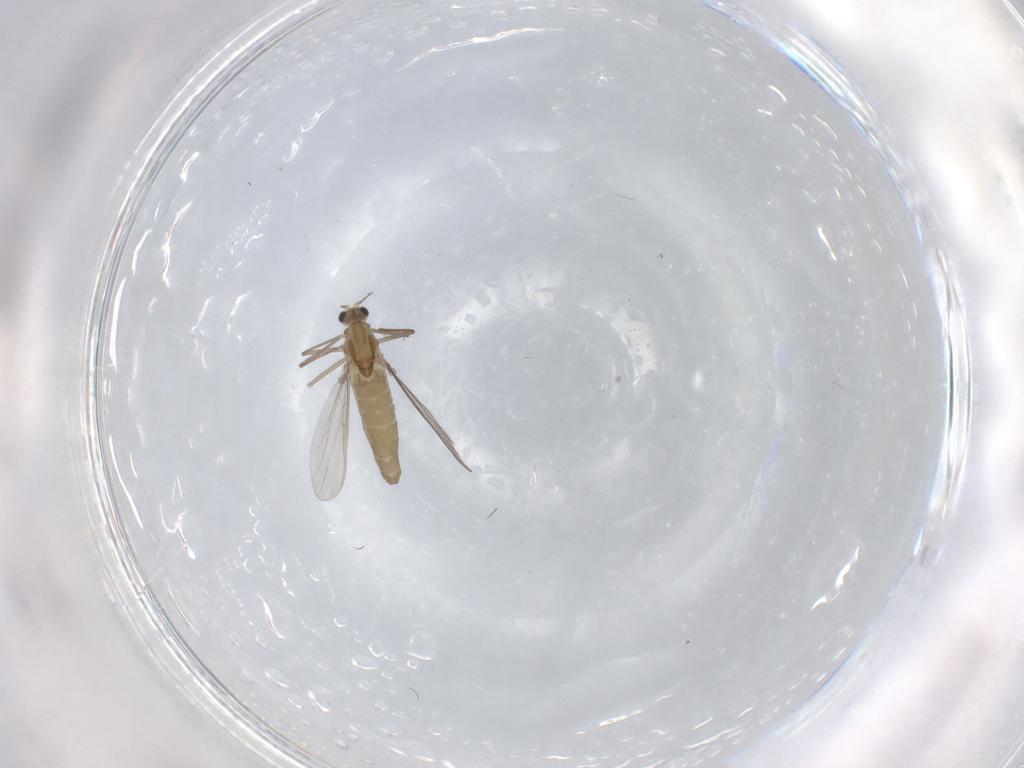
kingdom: Animalia
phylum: Arthropoda
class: Insecta
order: Diptera
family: Chironomidae
